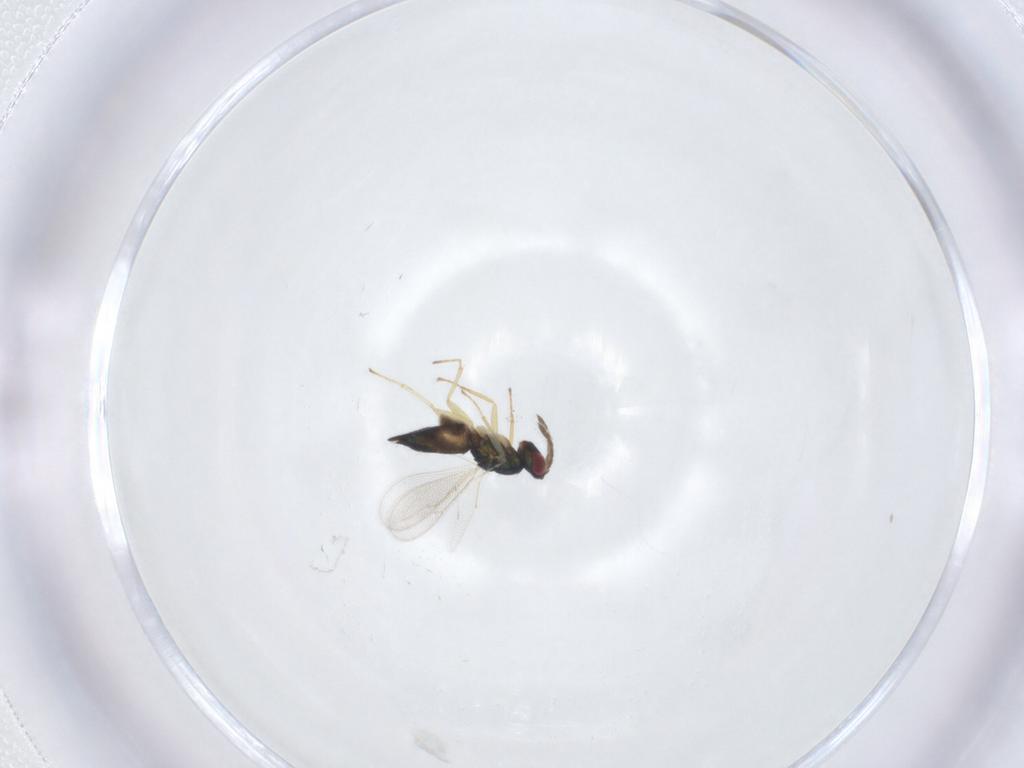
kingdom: Animalia
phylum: Arthropoda
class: Insecta
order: Hymenoptera
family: Eulophidae
